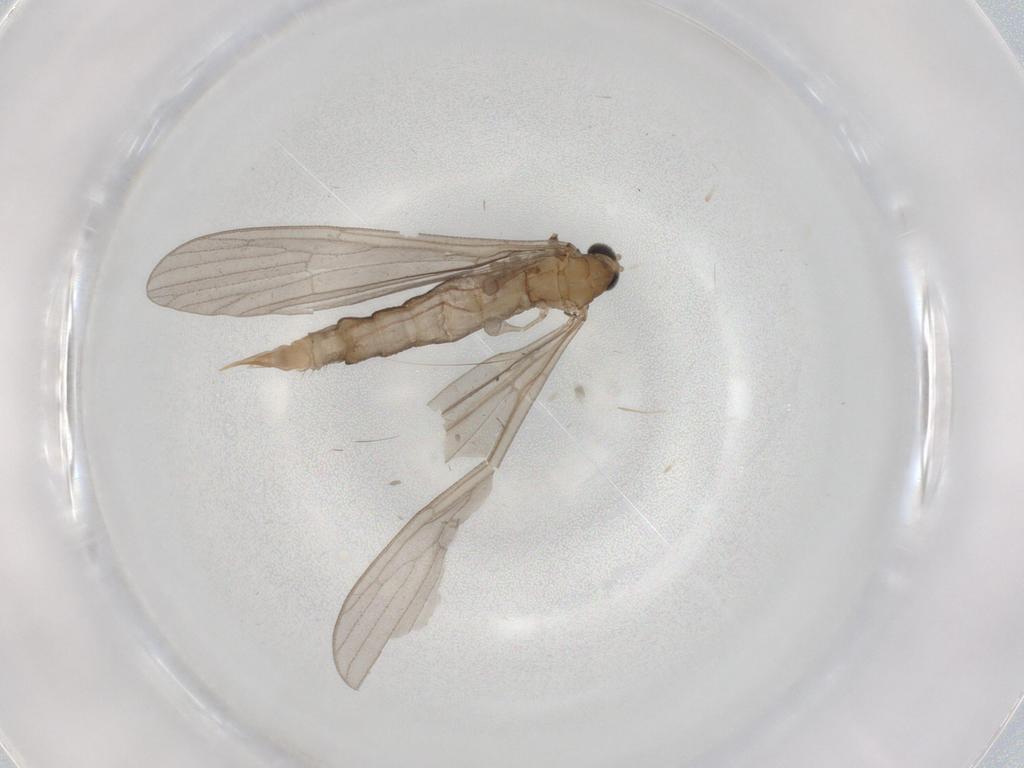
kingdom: Animalia
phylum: Arthropoda
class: Insecta
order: Diptera
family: Limoniidae
